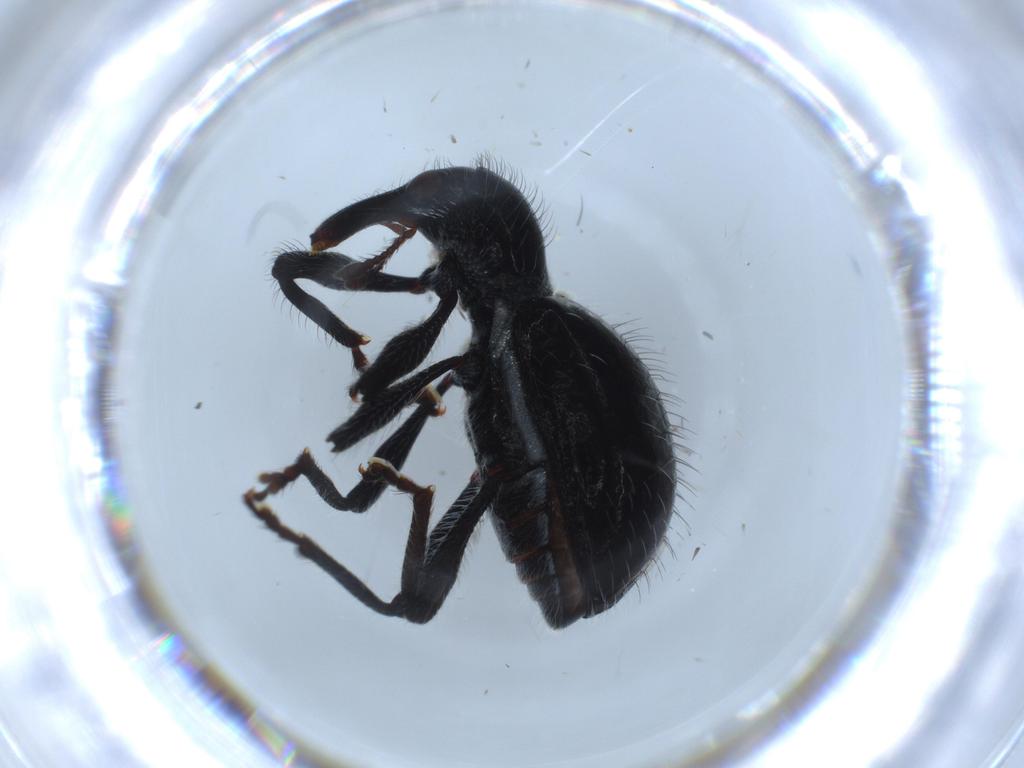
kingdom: Animalia
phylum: Arthropoda
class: Insecta
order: Coleoptera
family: Curculionidae
